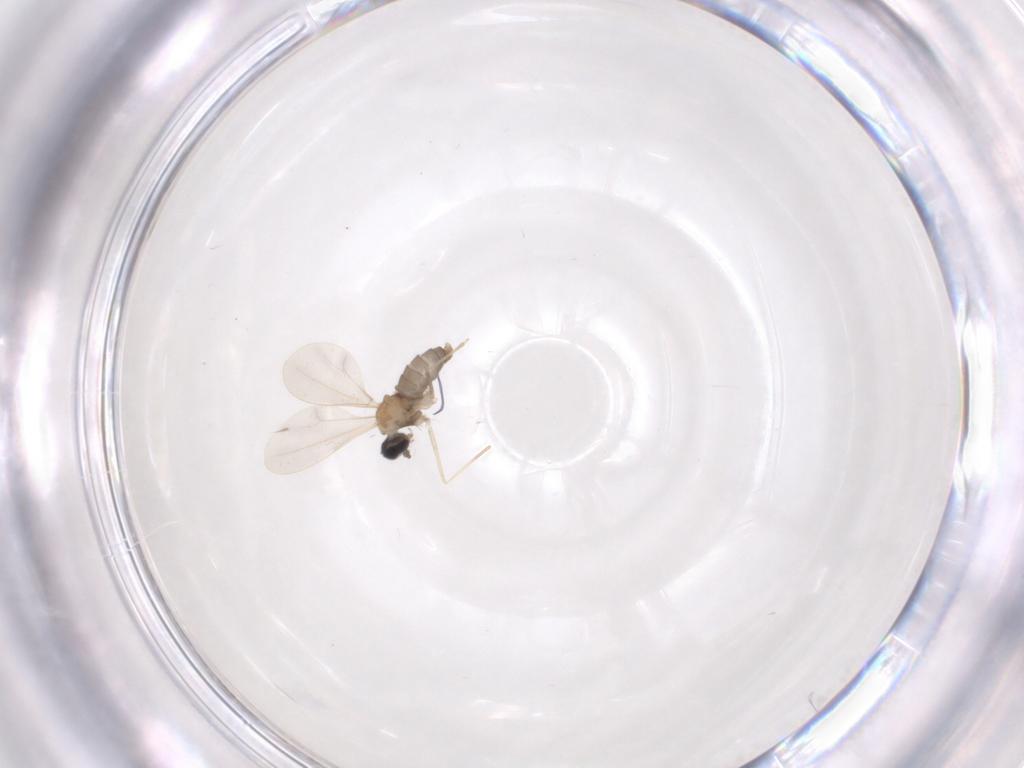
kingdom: Animalia
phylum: Arthropoda
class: Insecta
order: Diptera
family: Cecidomyiidae
